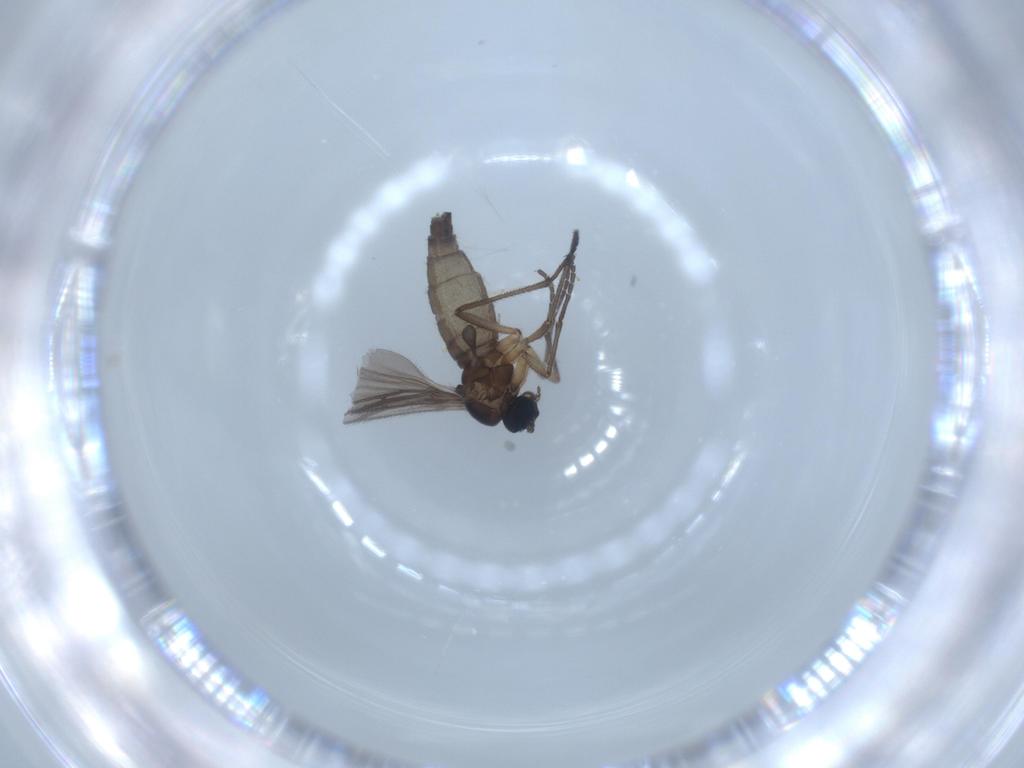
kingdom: Animalia
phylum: Arthropoda
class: Insecta
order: Diptera
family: Sciaridae
